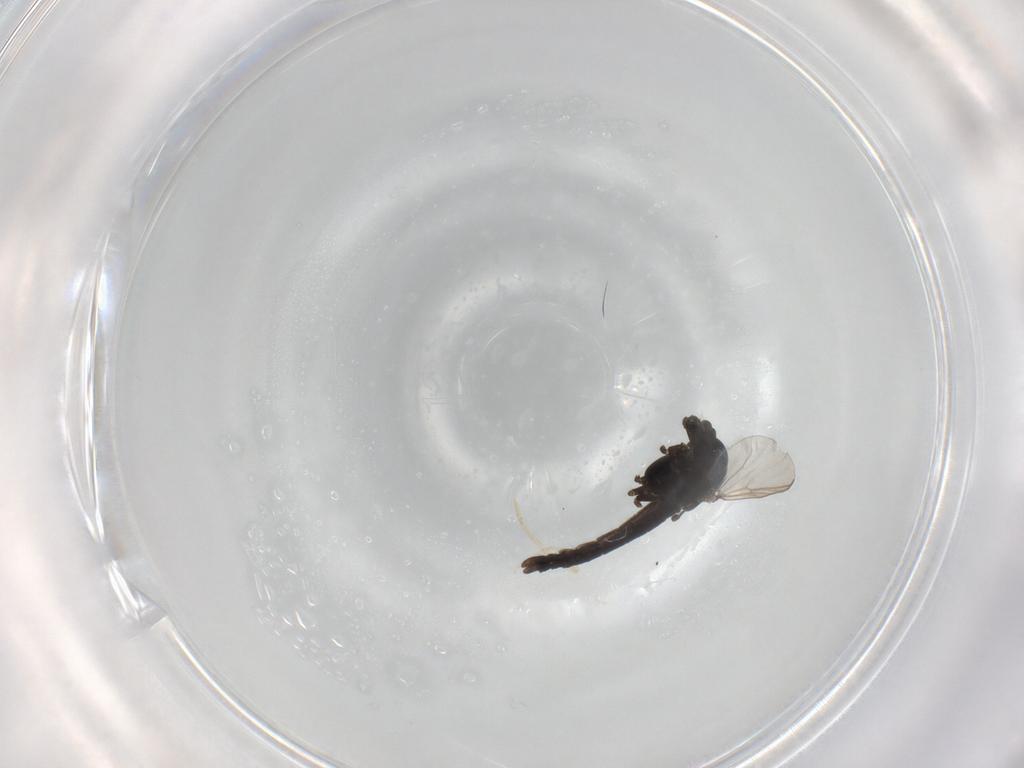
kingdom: Animalia
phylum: Arthropoda
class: Insecta
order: Diptera
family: Chironomidae
